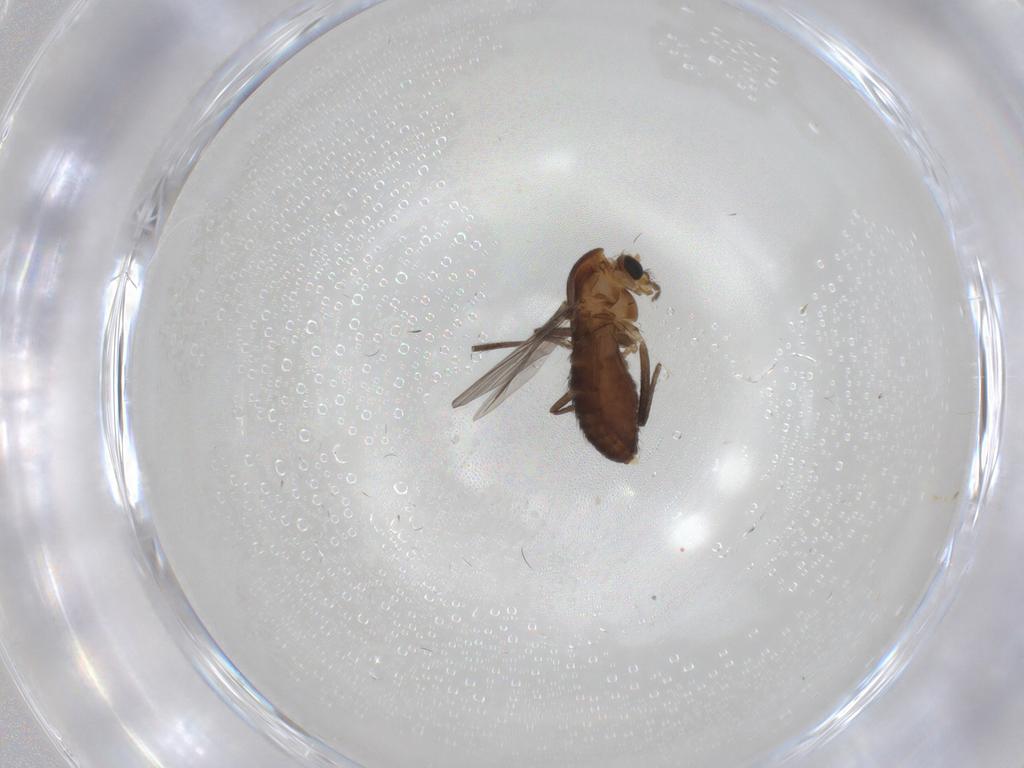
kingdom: Animalia
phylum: Arthropoda
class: Insecta
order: Diptera
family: Chironomidae
